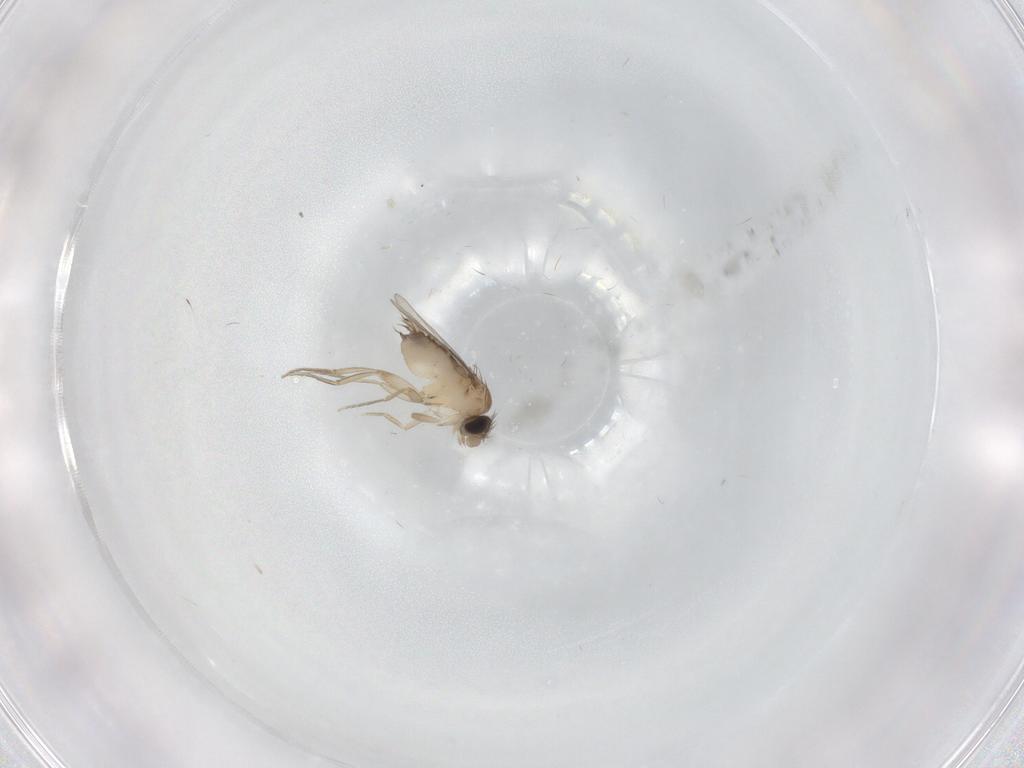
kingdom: Animalia
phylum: Arthropoda
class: Insecta
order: Diptera
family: Phoridae
